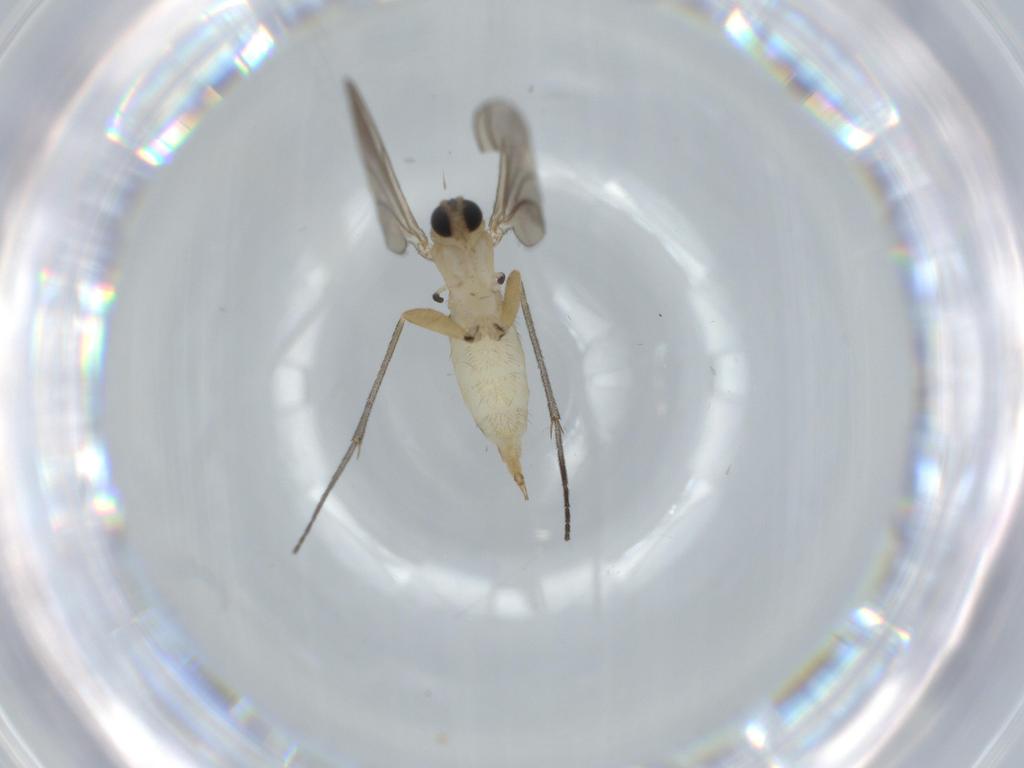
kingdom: Animalia
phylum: Arthropoda
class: Insecta
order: Diptera
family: Sciaridae
